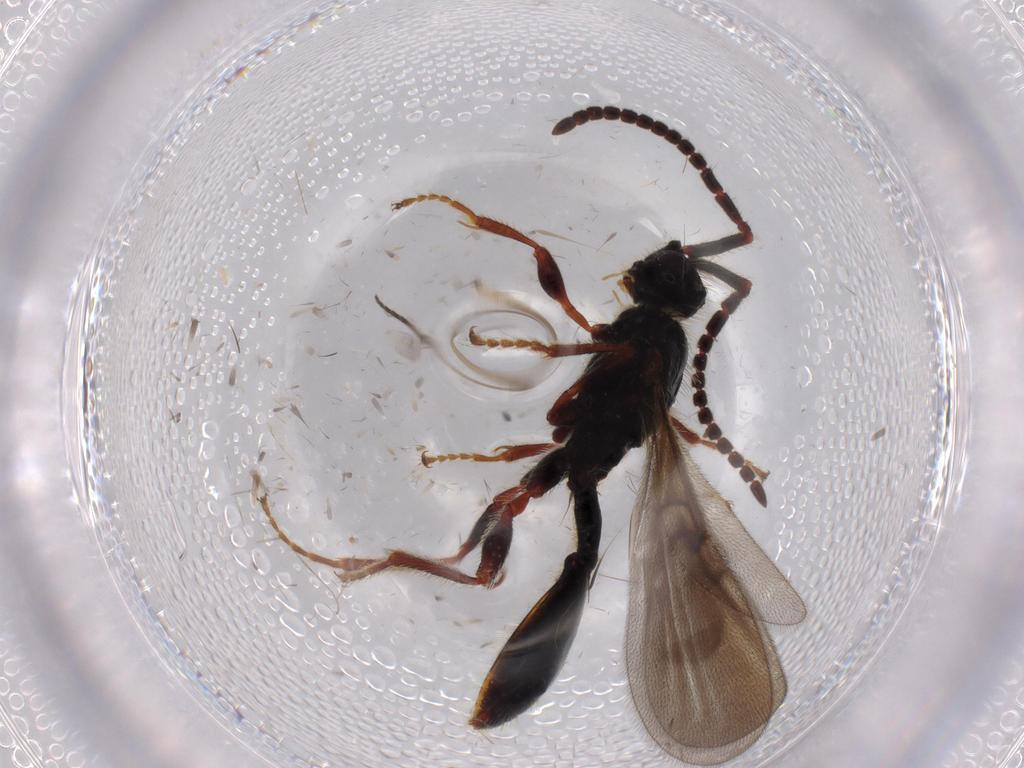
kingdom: Animalia
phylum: Arthropoda
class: Insecta
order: Hymenoptera
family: Diapriidae
